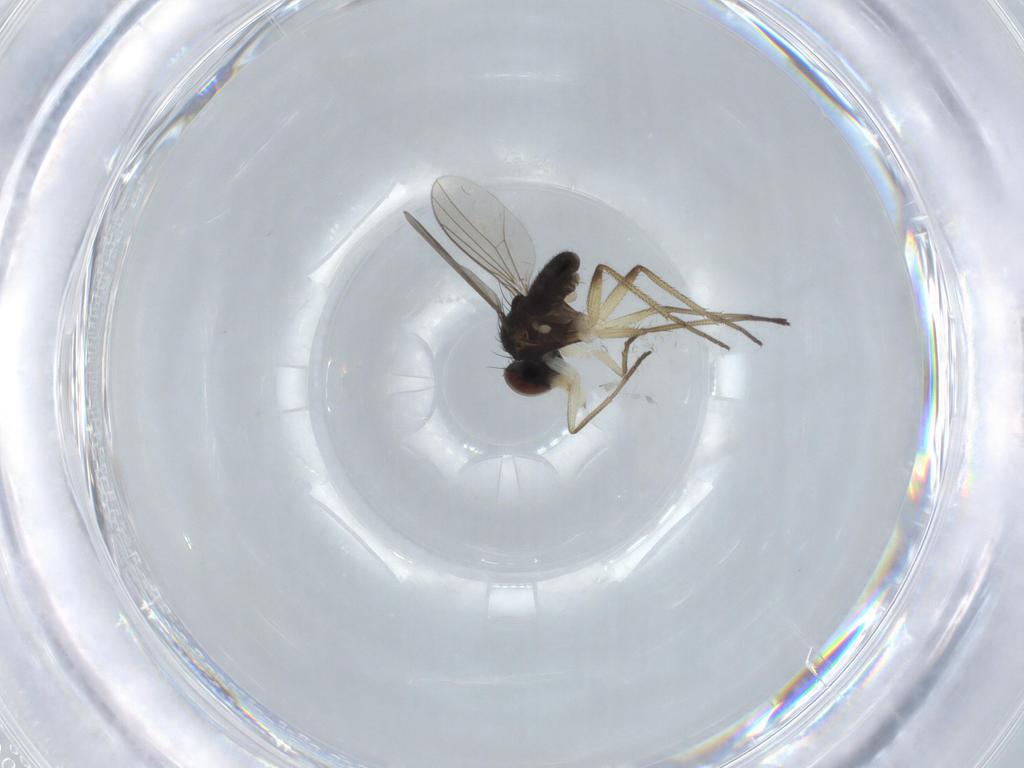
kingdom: Animalia
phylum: Arthropoda
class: Insecta
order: Diptera
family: Dolichopodidae
